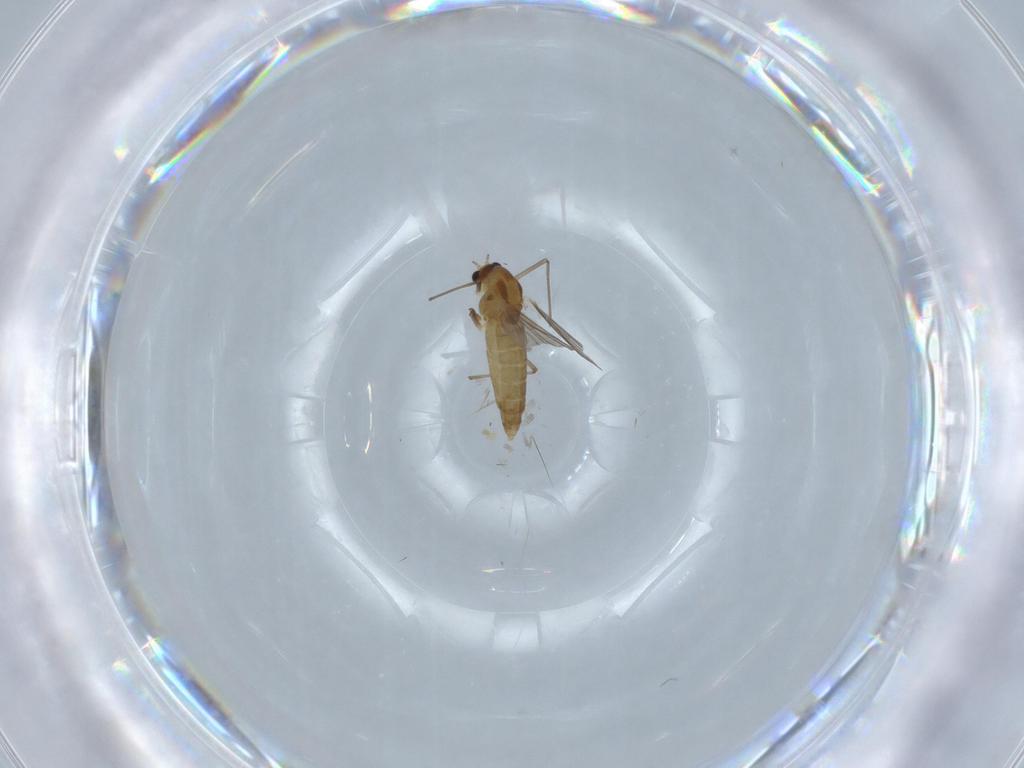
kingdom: Animalia
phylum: Arthropoda
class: Insecta
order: Diptera
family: Chironomidae
